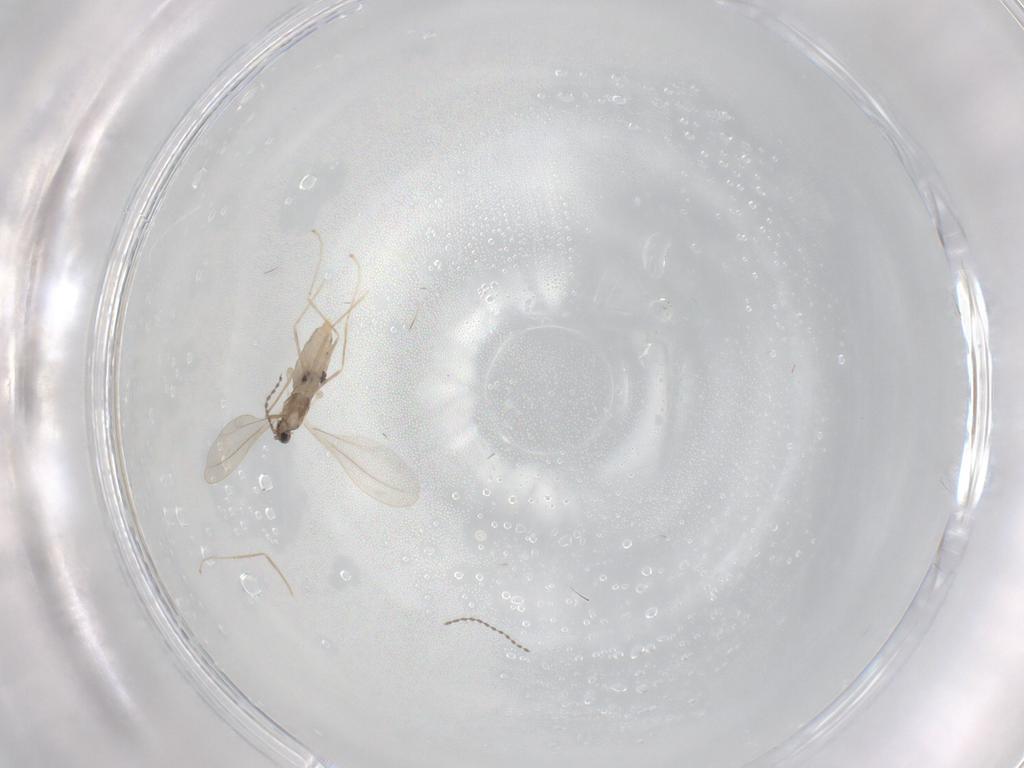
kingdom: Animalia
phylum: Arthropoda
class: Insecta
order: Diptera
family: Cecidomyiidae
